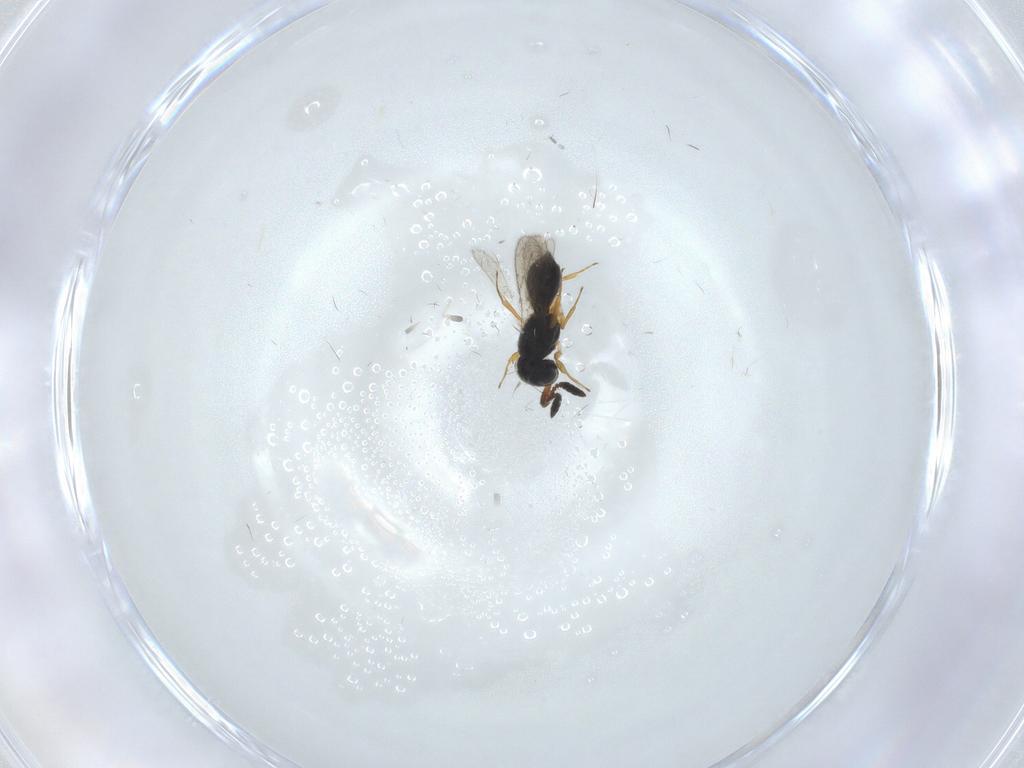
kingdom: Animalia
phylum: Arthropoda
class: Insecta
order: Hymenoptera
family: Scelionidae
